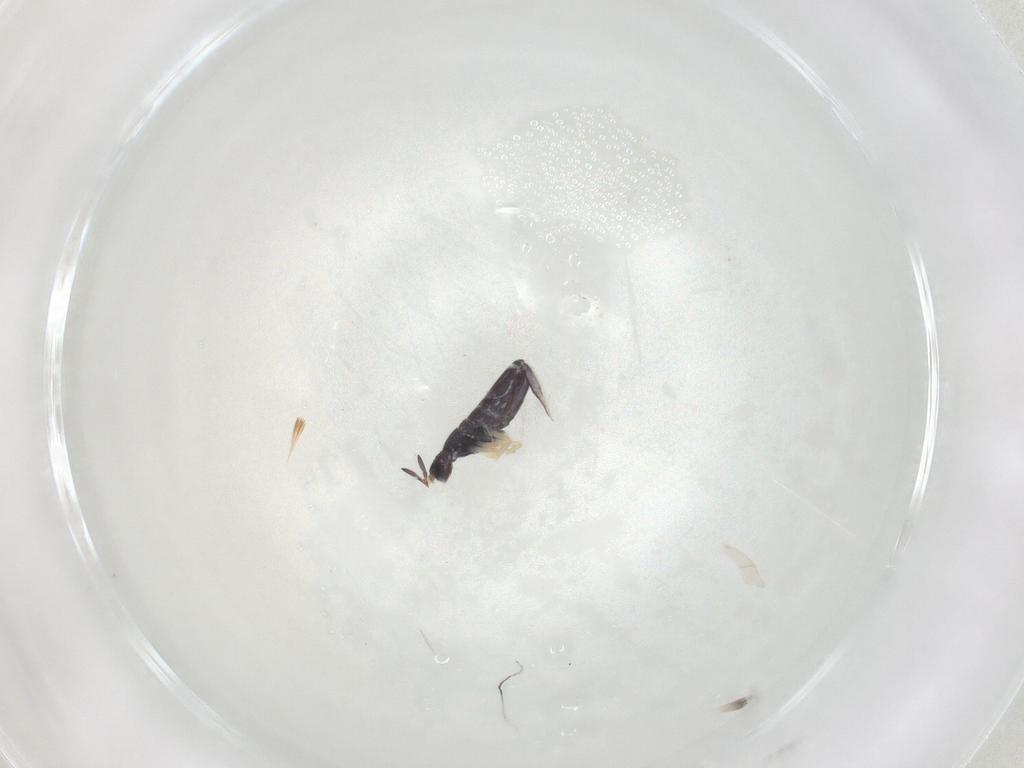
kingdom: Animalia
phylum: Arthropoda
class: Collembola
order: Entomobryomorpha
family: Entomobryidae
